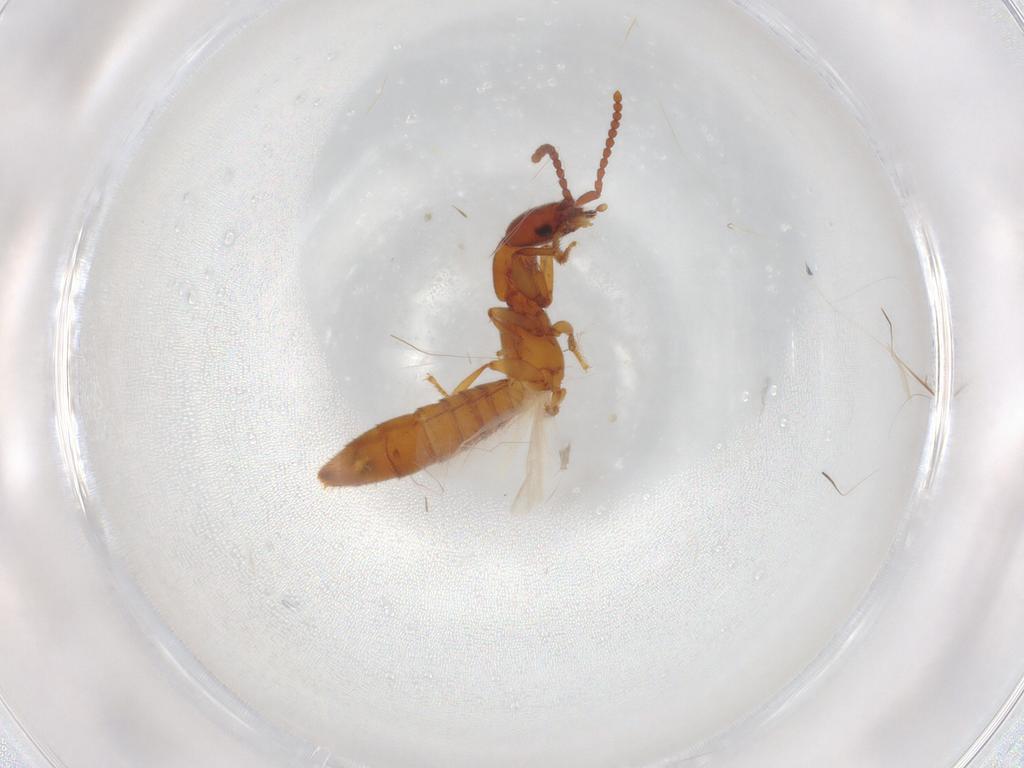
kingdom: Animalia
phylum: Arthropoda
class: Insecta
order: Coleoptera
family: Staphylinidae
